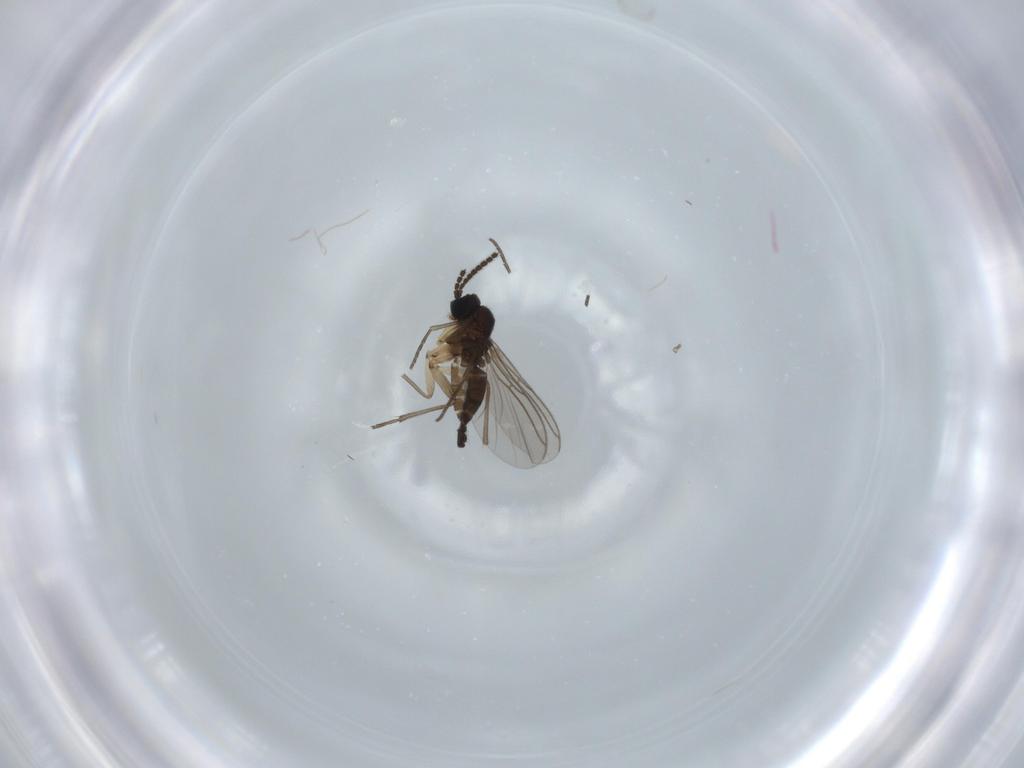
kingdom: Animalia
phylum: Arthropoda
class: Insecta
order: Diptera
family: Sciaridae
